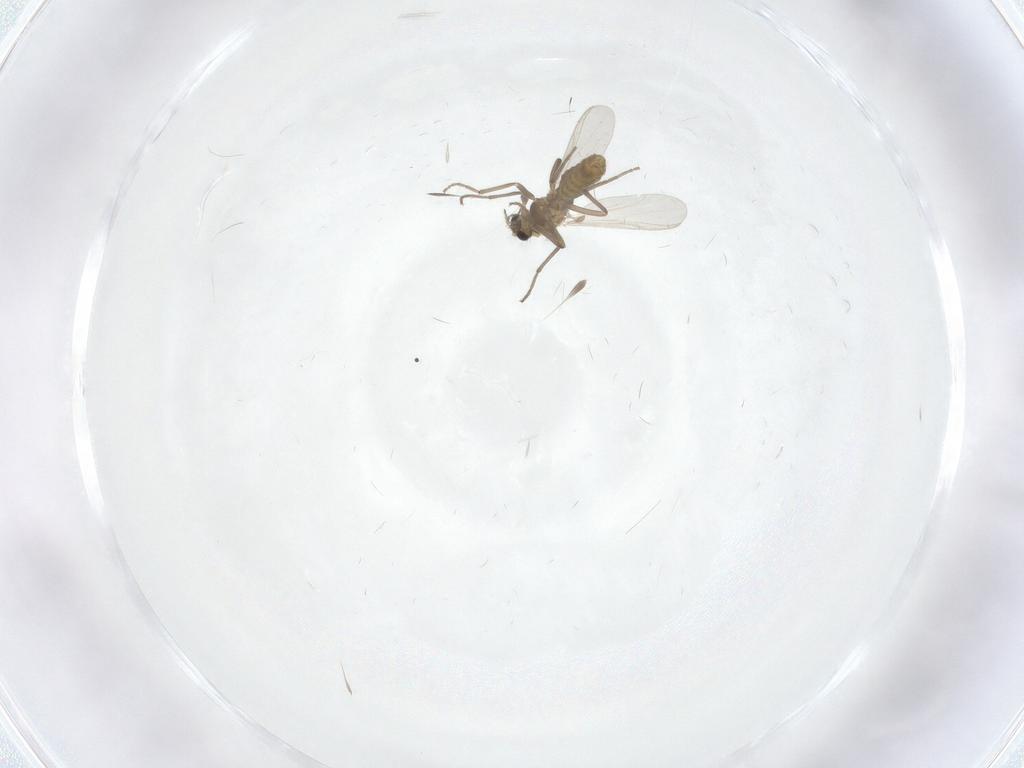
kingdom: Animalia
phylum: Arthropoda
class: Insecta
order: Diptera
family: Chironomidae
